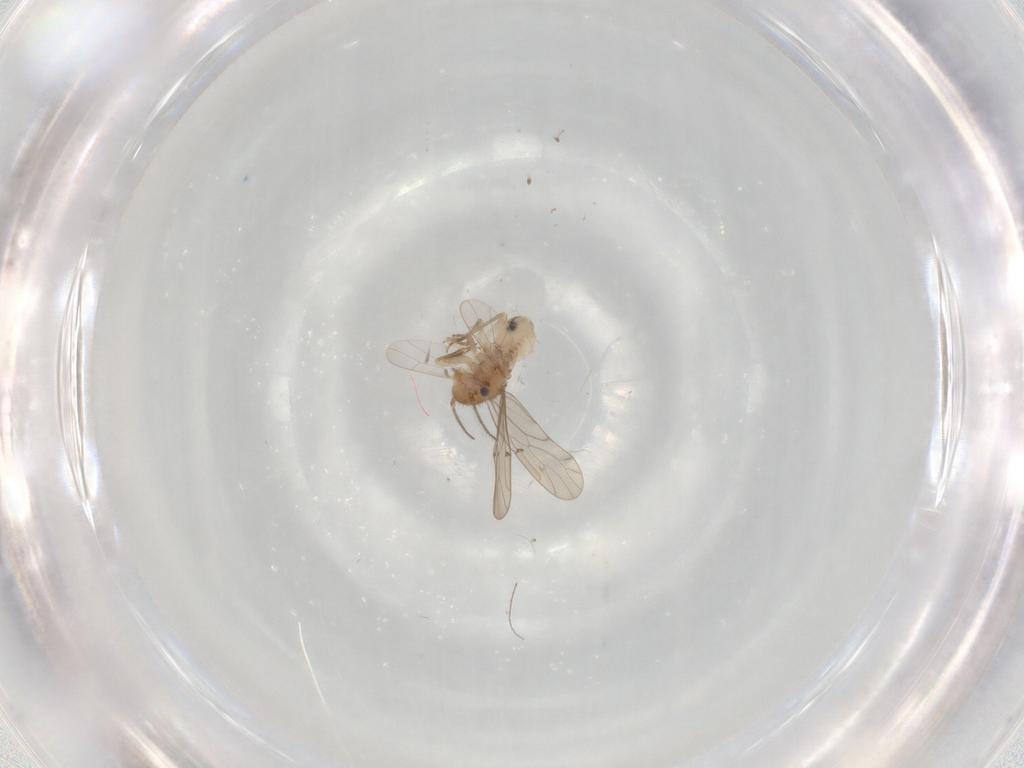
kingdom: Animalia
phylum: Arthropoda
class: Insecta
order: Psocodea
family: Ectopsocidae
